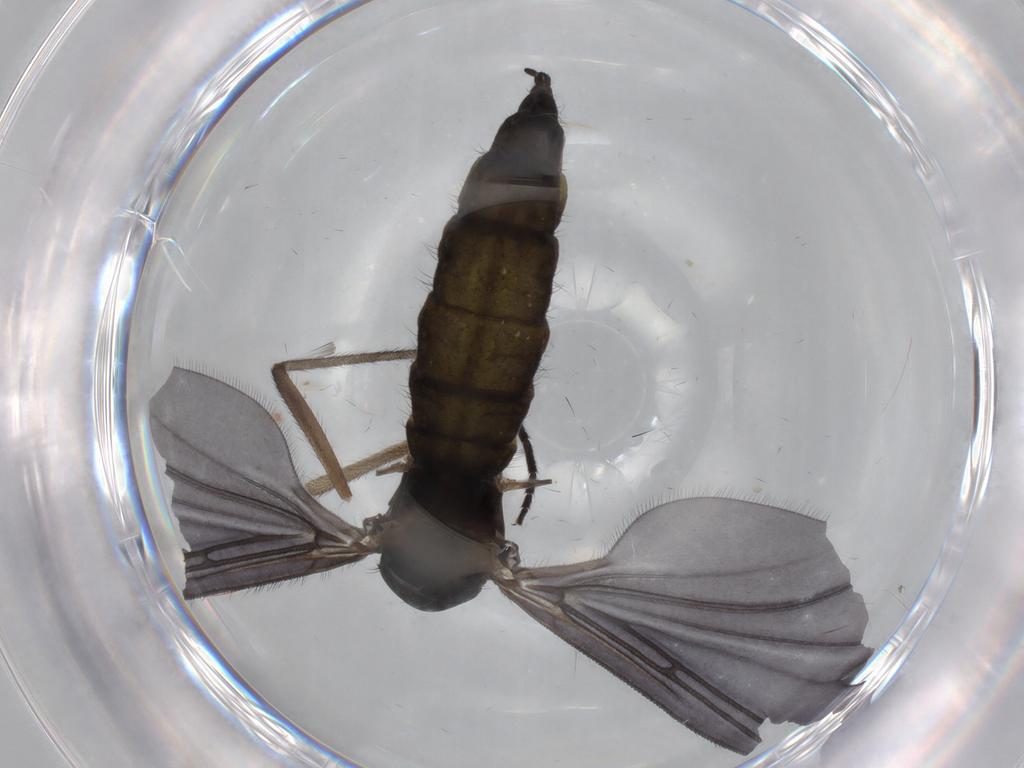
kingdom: Animalia
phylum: Arthropoda
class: Insecta
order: Diptera
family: Sciaridae
